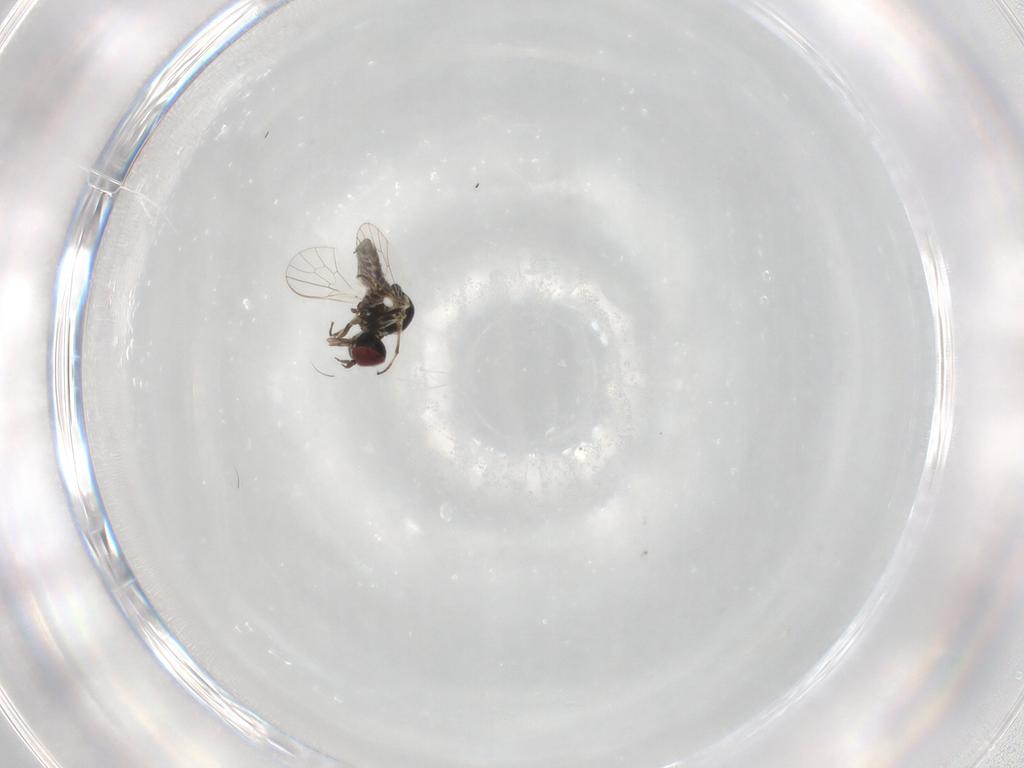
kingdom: Animalia
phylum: Arthropoda
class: Insecta
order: Diptera
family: Mythicomyiidae
